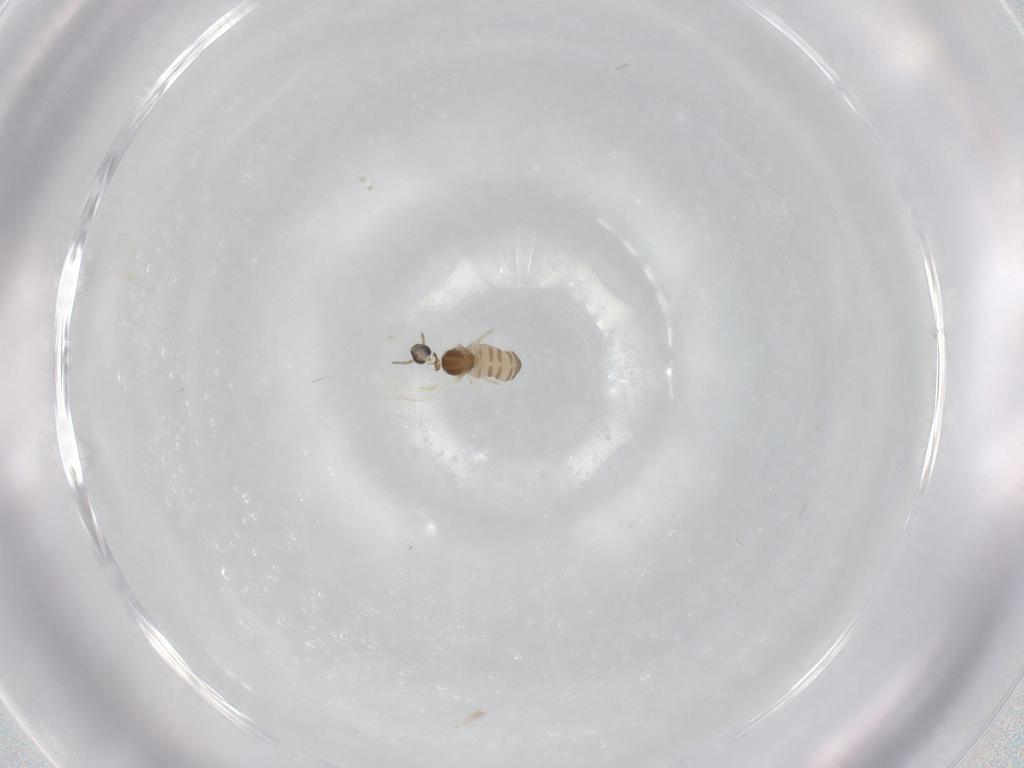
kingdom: Animalia
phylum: Arthropoda
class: Insecta
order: Diptera
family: Cecidomyiidae
